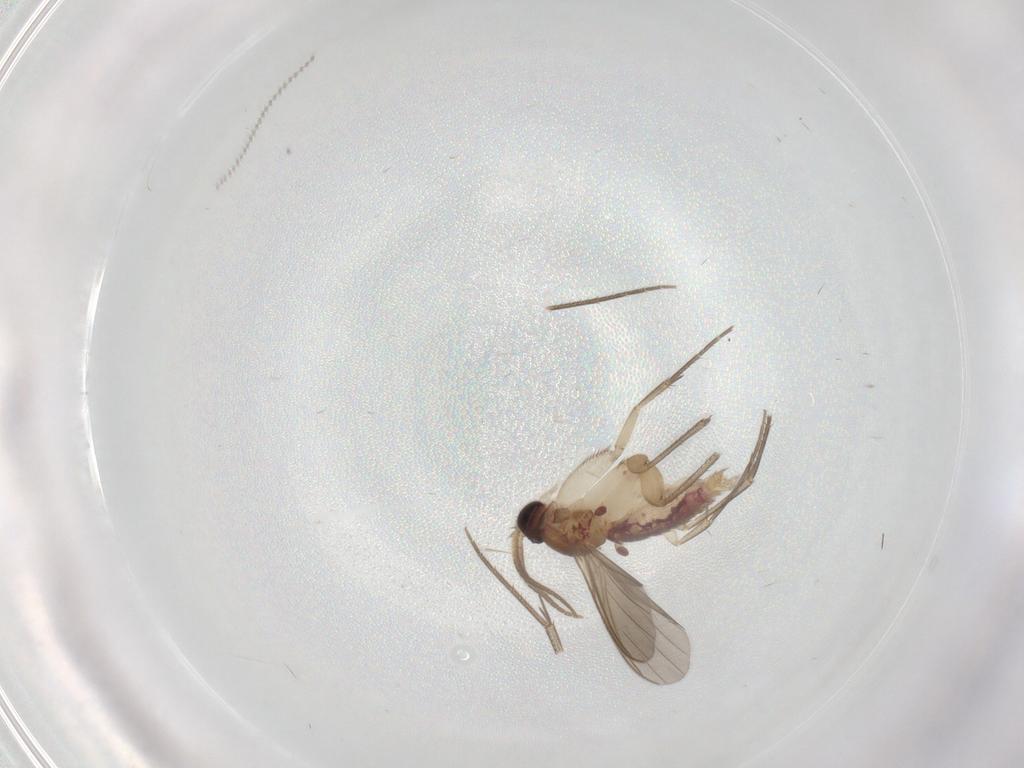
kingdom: Animalia
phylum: Arthropoda
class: Insecta
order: Diptera
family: Mycetophilidae
